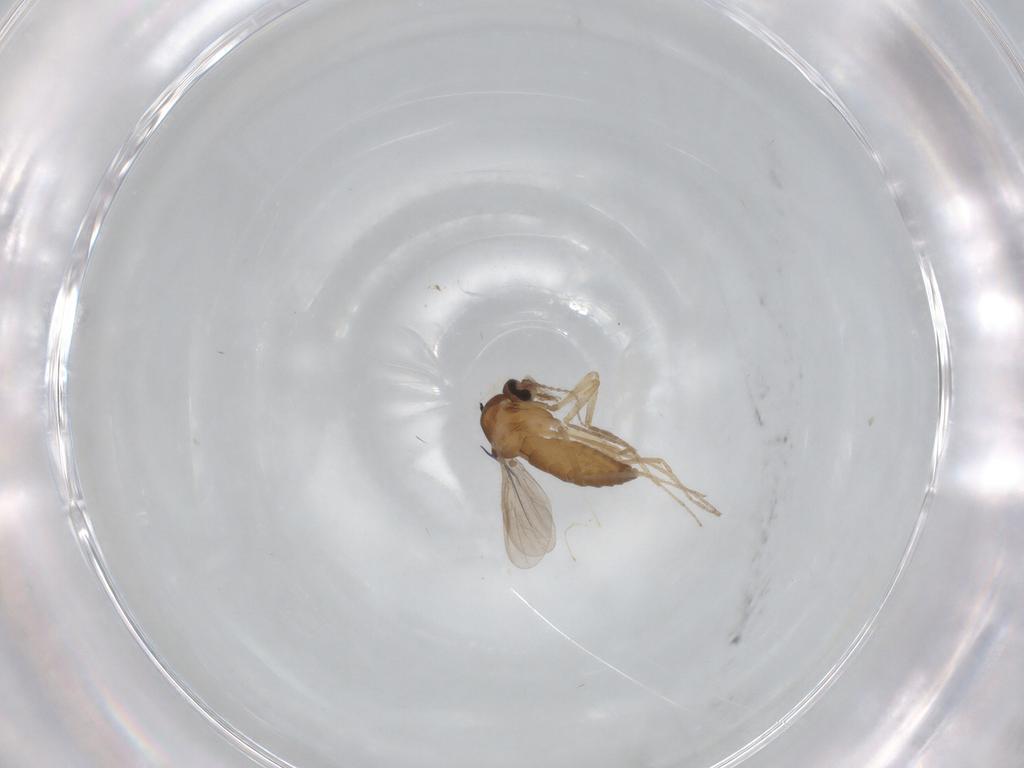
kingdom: Animalia
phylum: Arthropoda
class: Insecta
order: Diptera
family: Ceratopogonidae
